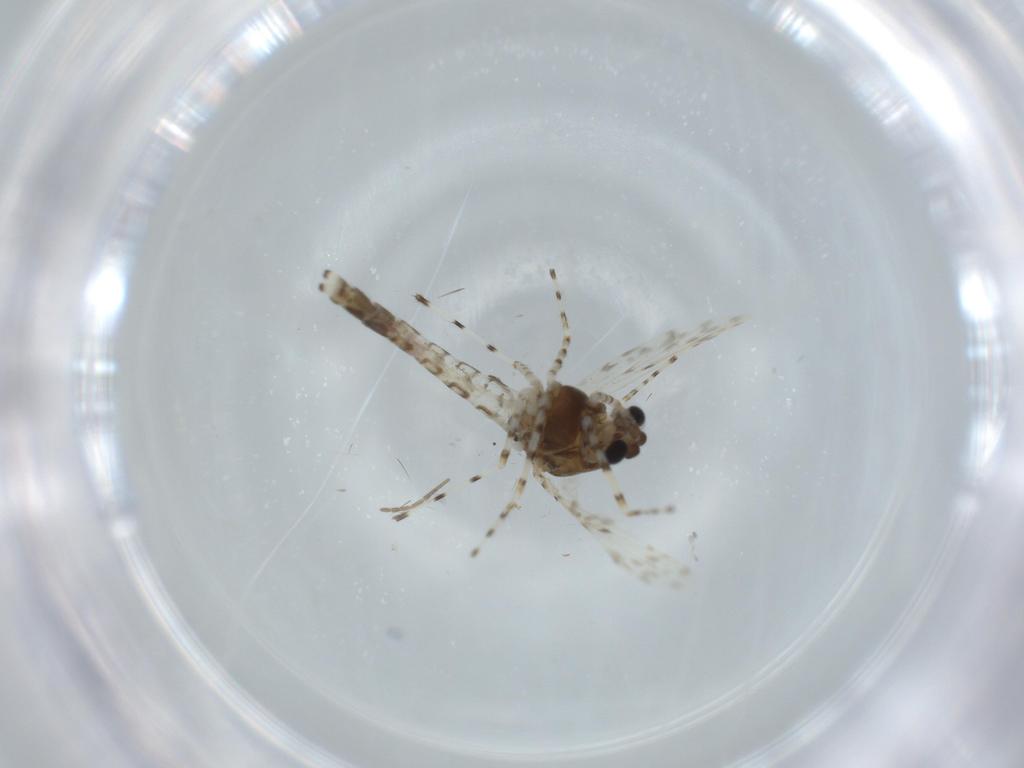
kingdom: Animalia
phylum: Arthropoda
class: Insecta
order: Diptera
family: Chironomidae
